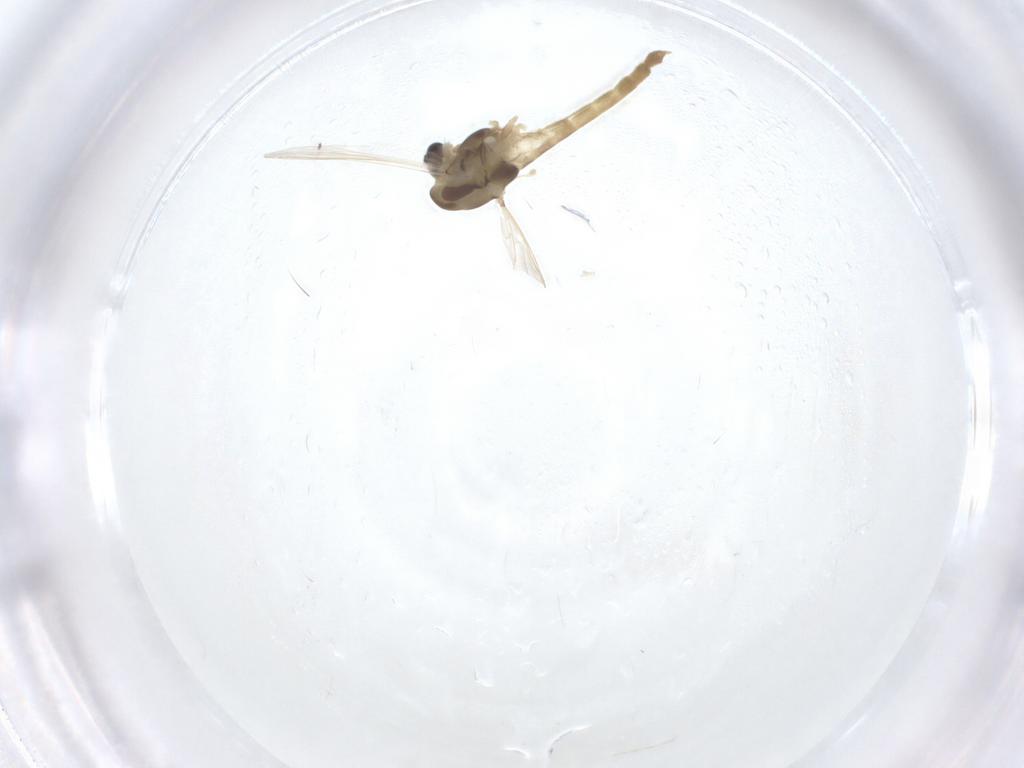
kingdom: Animalia
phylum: Arthropoda
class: Insecta
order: Diptera
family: Chironomidae
